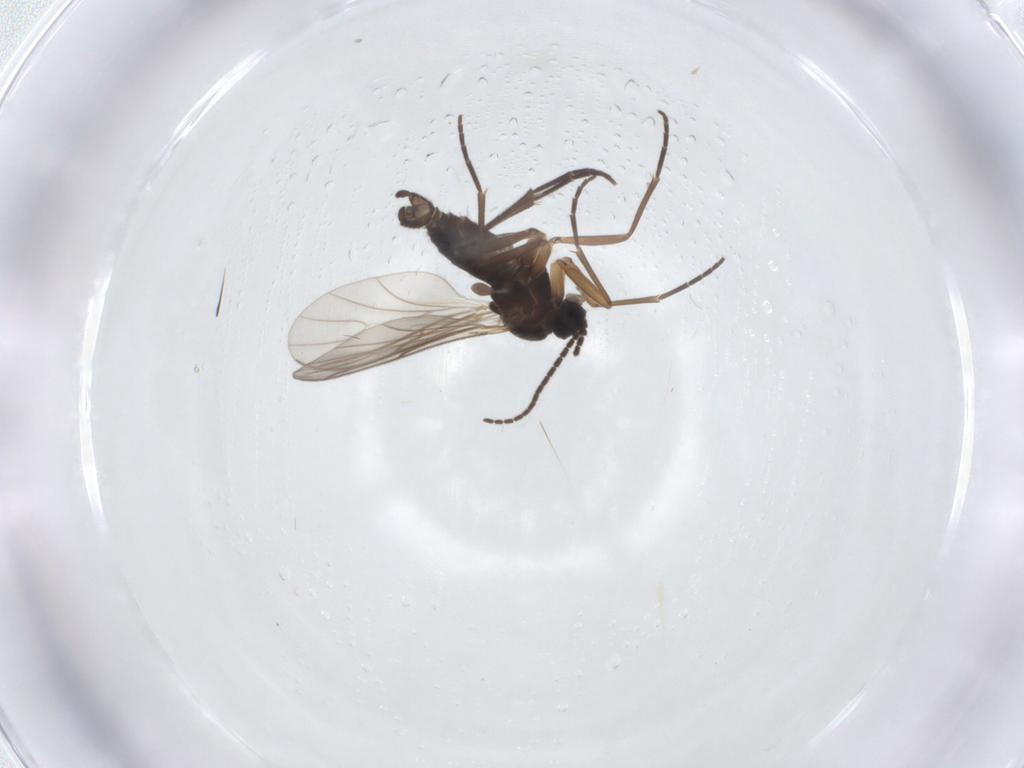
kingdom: Animalia
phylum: Arthropoda
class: Insecta
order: Diptera
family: Sciaridae
